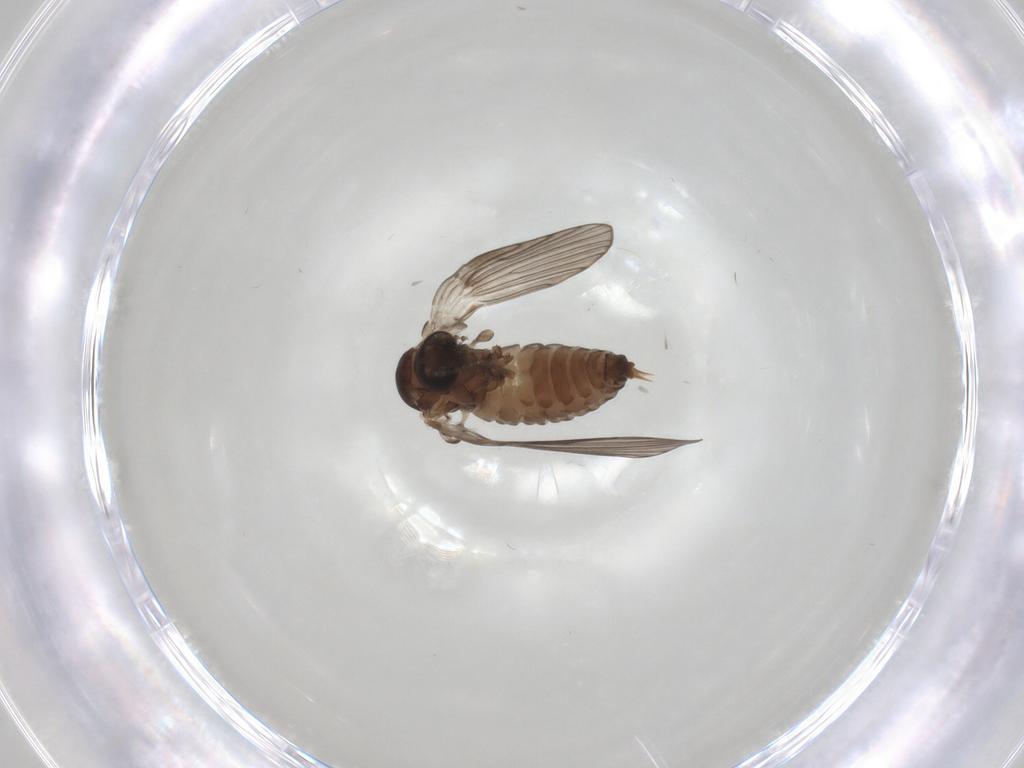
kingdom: Animalia
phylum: Arthropoda
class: Insecta
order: Diptera
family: Psychodidae
